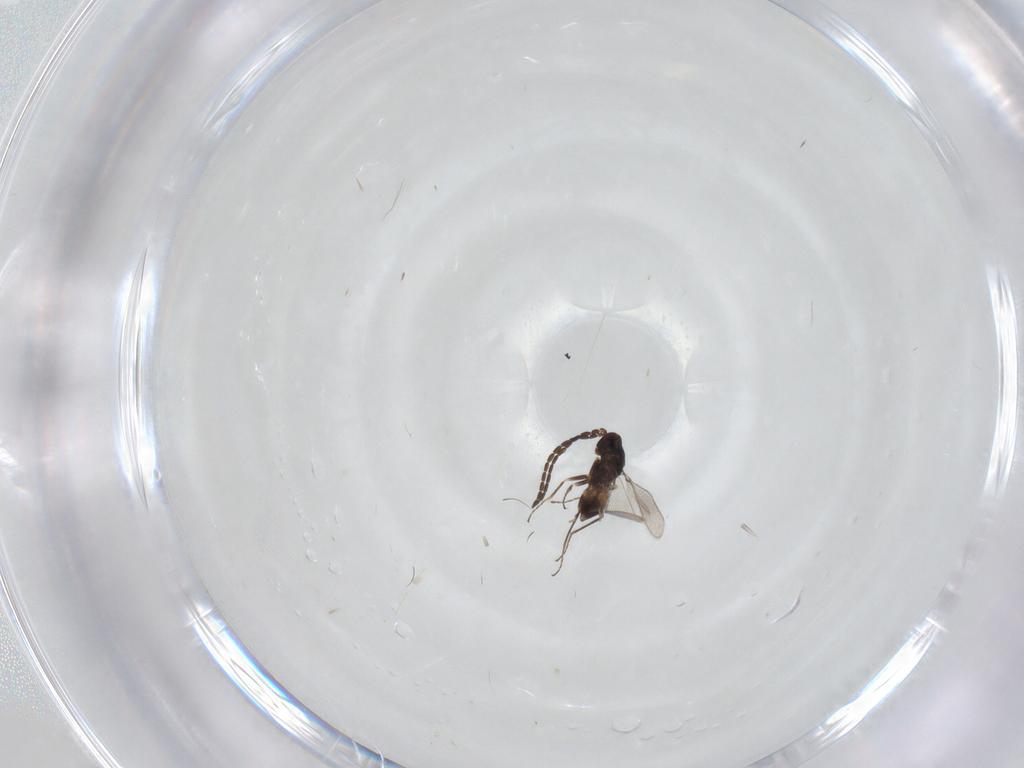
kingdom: Animalia
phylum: Arthropoda
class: Insecta
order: Hymenoptera
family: Mymaridae
